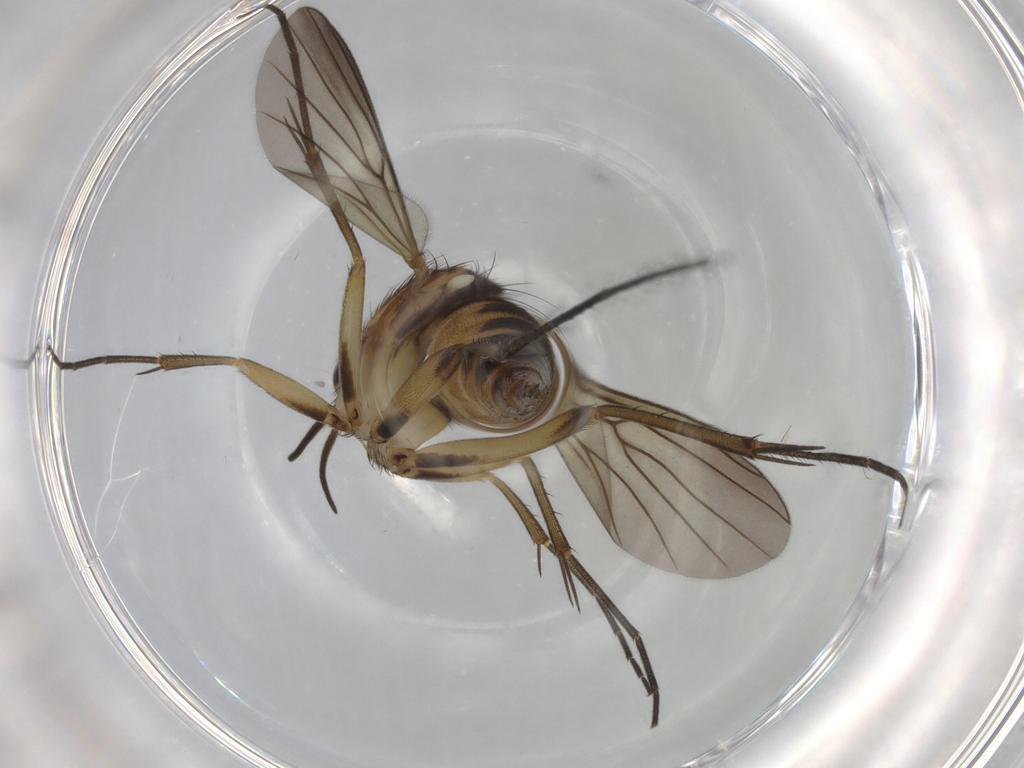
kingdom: Animalia
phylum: Arthropoda
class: Insecta
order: Diptera
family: Mycetophilidae
